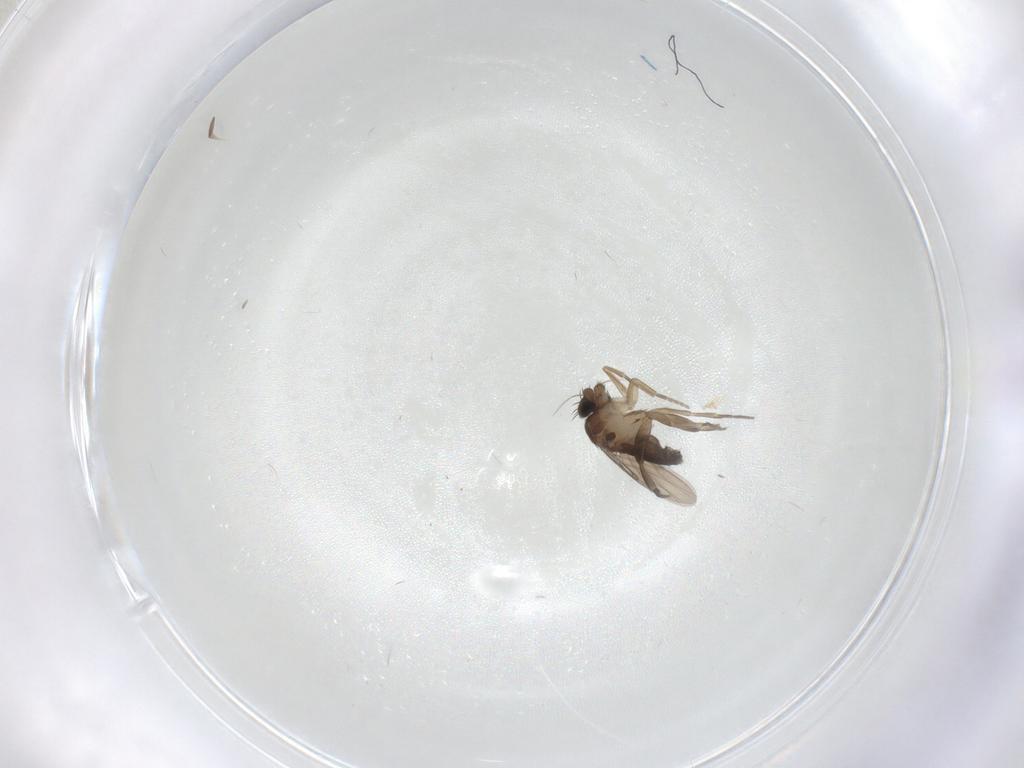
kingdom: Animalia
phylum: Arthropoda
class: Insecta
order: Diptera
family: Phoridae
